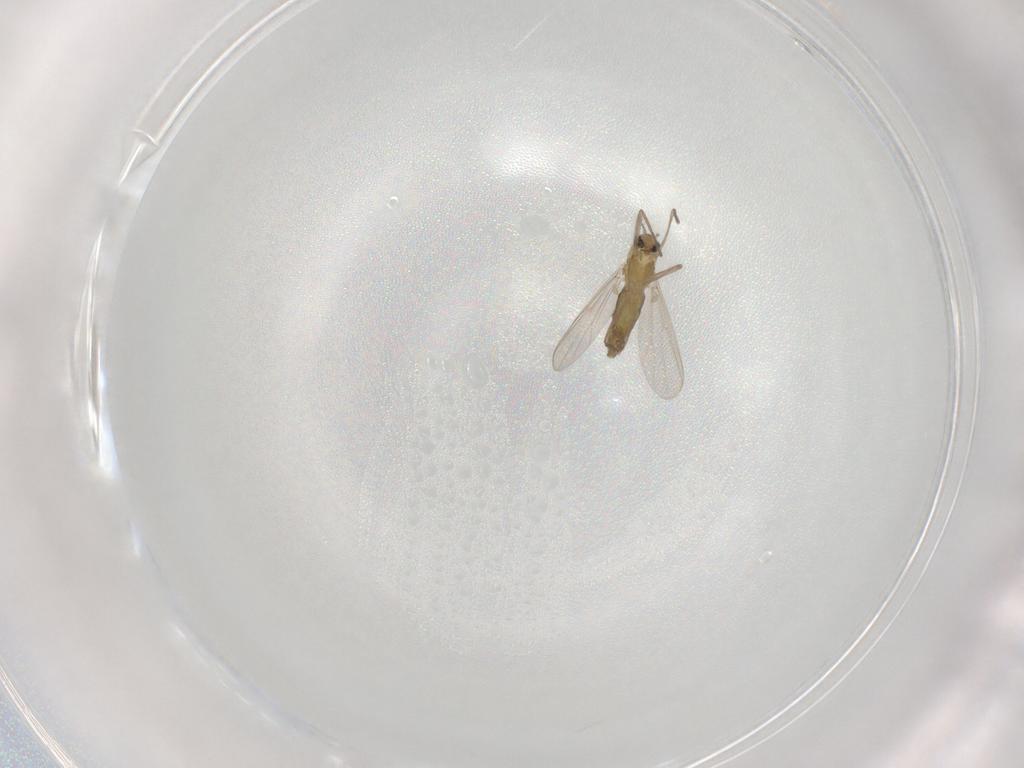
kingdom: Animalia
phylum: Arthropoda
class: Insecta
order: Diptera
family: Chironomidae
